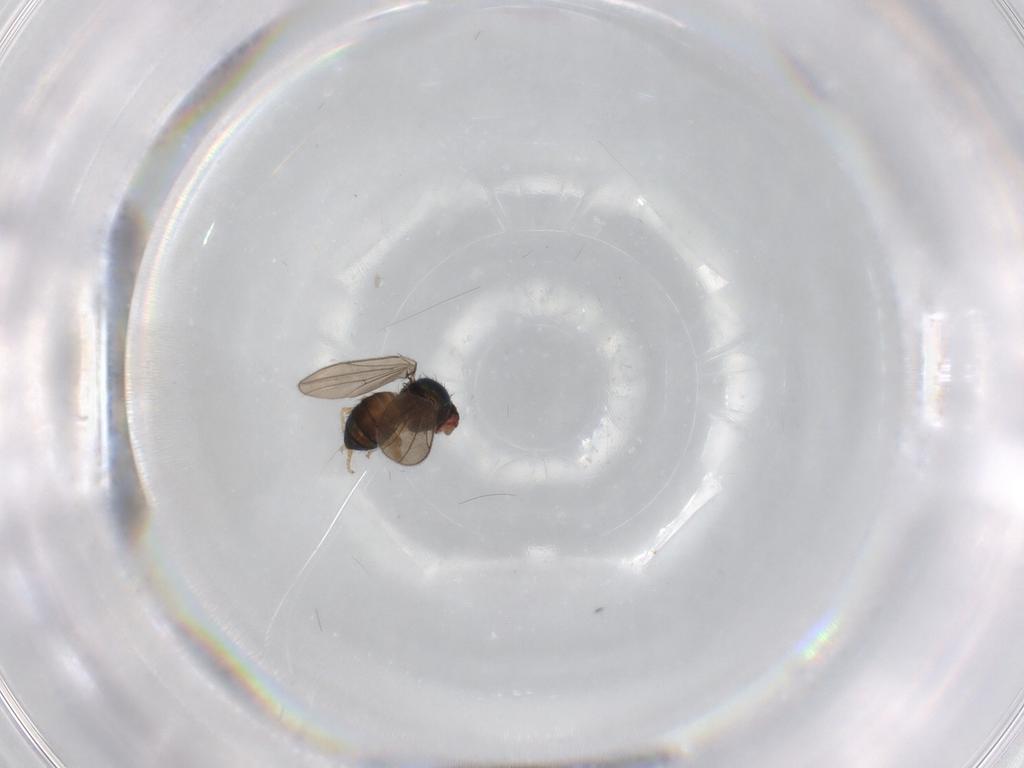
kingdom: Animalia
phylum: Arthropoda
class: Insecta
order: Diptera
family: Drosophilidae
